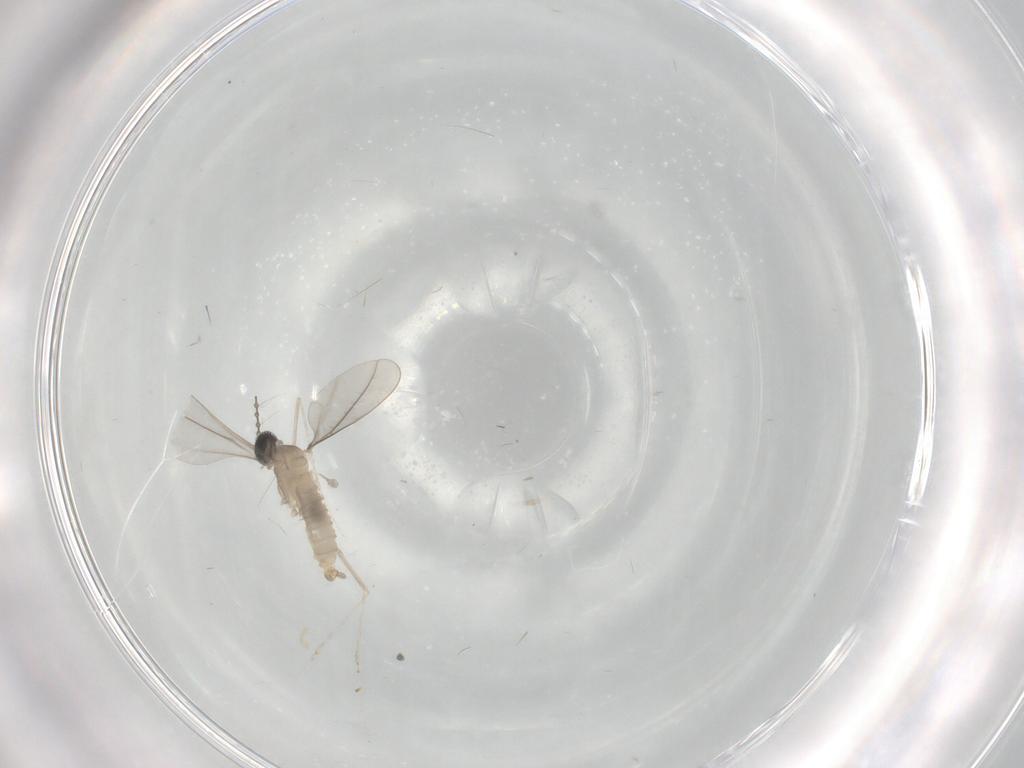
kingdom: Animalia
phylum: Arthropoda
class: Insecta
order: Diptera
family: Cecidomyiidae
